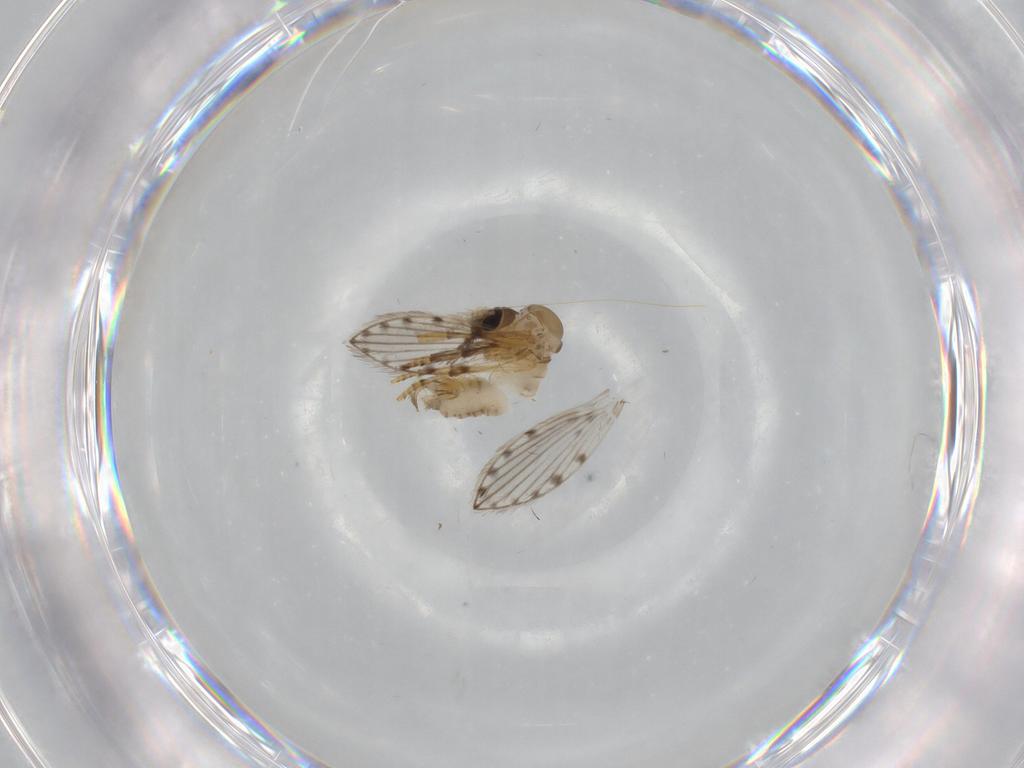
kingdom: Animalia
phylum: Arthropoda
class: Insecta
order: Diptera
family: Psychodidae
